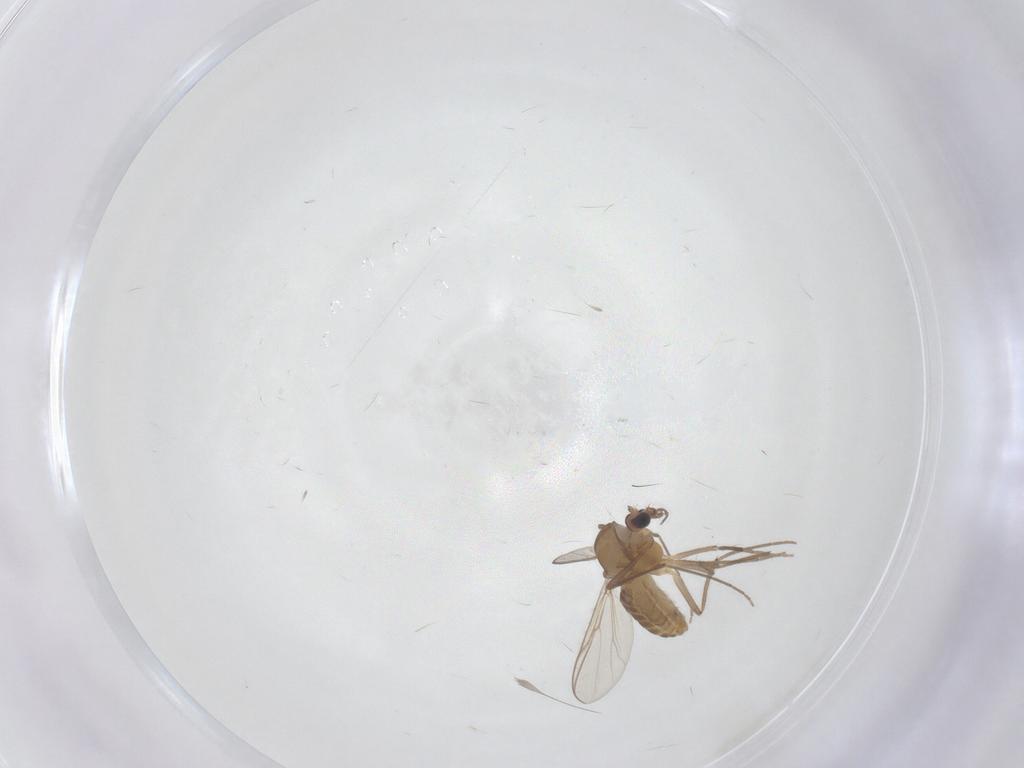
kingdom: Animalia
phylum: Arthropoda
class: Insecta
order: Diptera
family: Chironomidae
